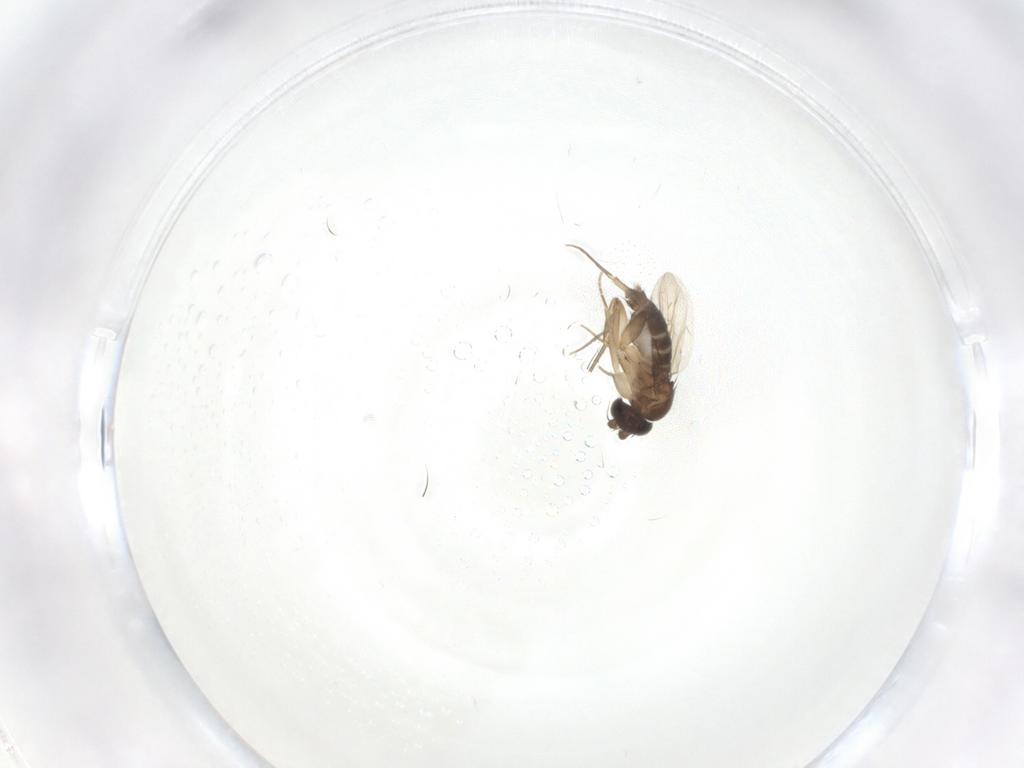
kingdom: Animalia
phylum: Arthropoda
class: Insecta
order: Diptera
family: Phoridae
